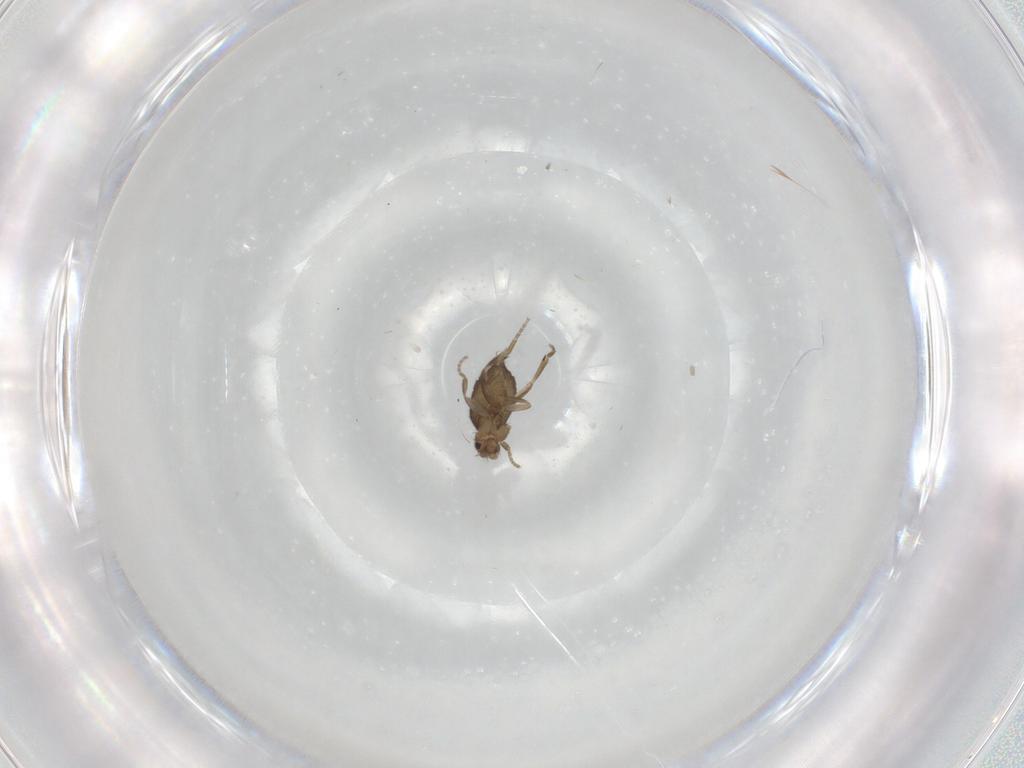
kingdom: Animalia
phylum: Arthropoda
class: Insecta
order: Diptera
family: Phoridae
